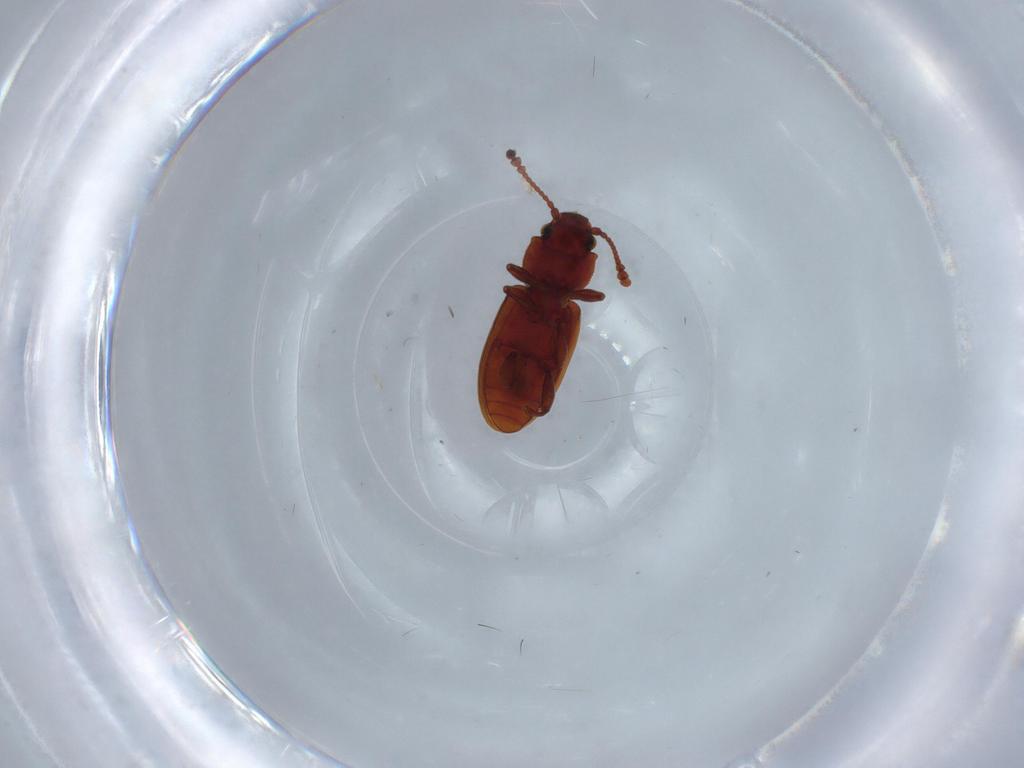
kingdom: Animalia
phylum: Arthropoda
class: Insecta
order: Coleoptera
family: Silvanidae
